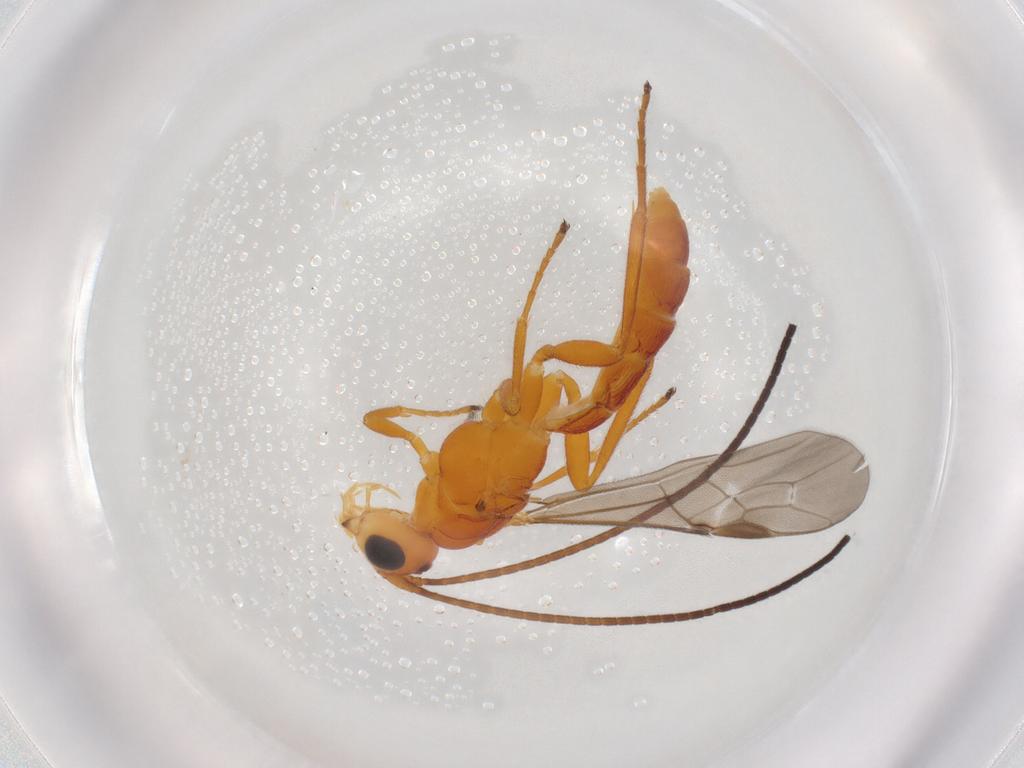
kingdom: Animalia
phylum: Arthropoda
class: Insecta
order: Hymenoptera
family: Braconidae
